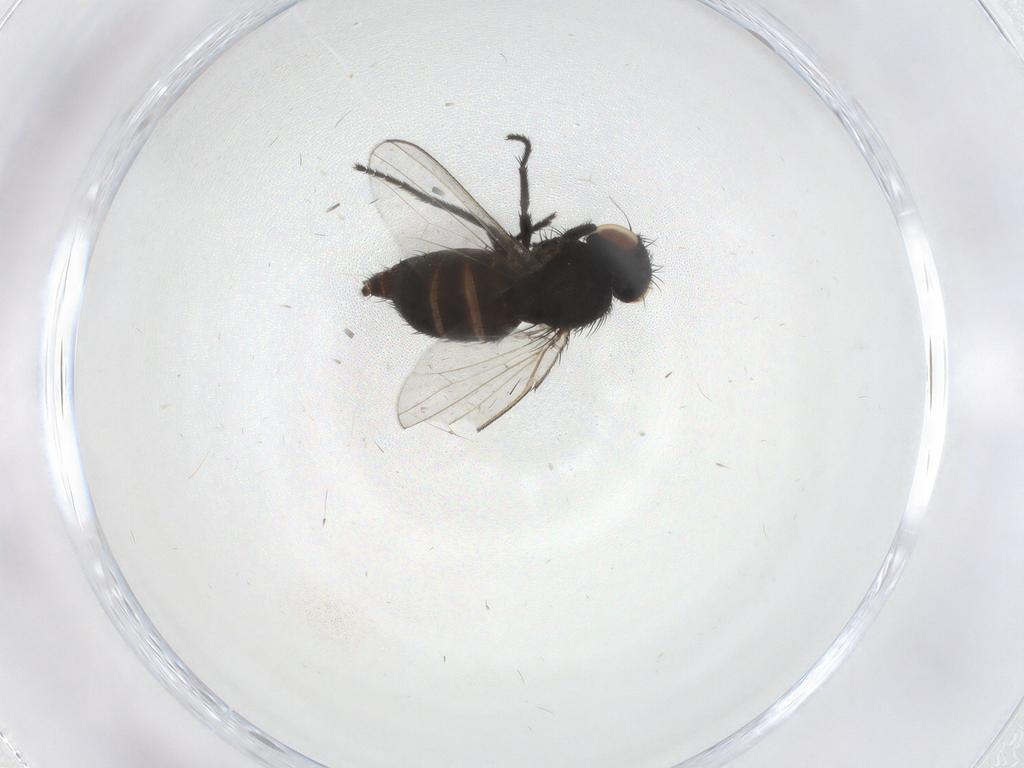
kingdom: Animalia
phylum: Arthropoda
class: Insecta
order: Diptera
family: Milichiidae
